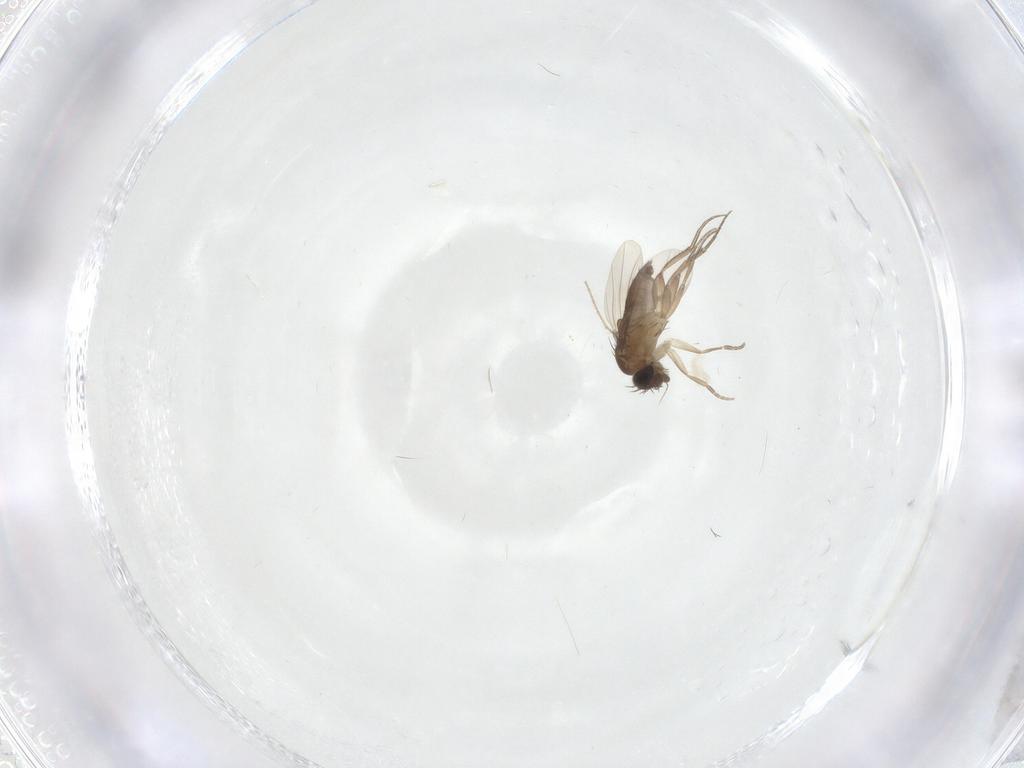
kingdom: Animalia
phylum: Arthropoda
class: Insecta
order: Diptera
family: Phoridae
